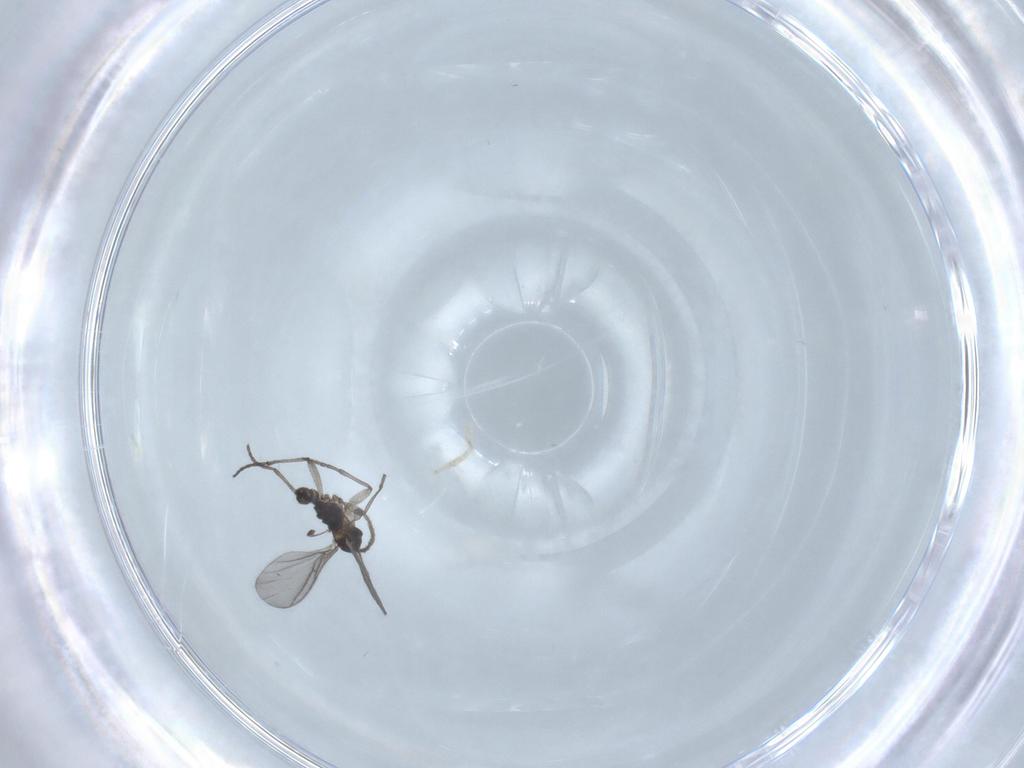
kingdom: Animalia
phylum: Arthropoda
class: Insecta
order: Diptera
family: Sciaridae
